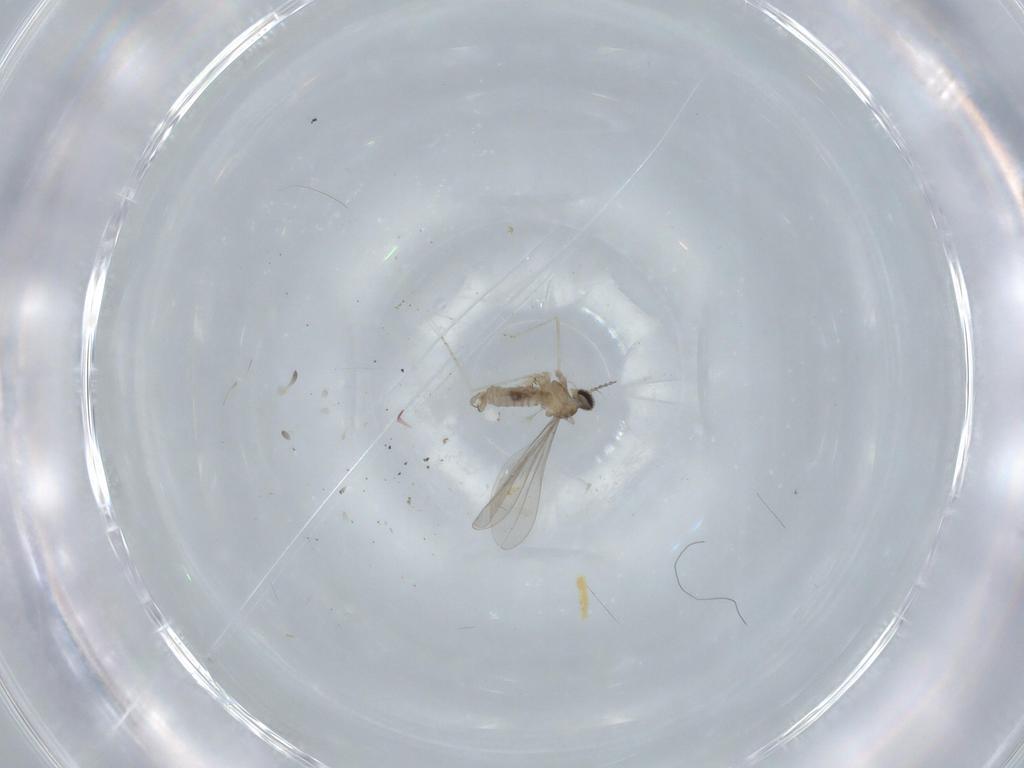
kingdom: Animalia
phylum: Arthropoda
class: Insecta
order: Diptera
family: Cecidomyiidae
